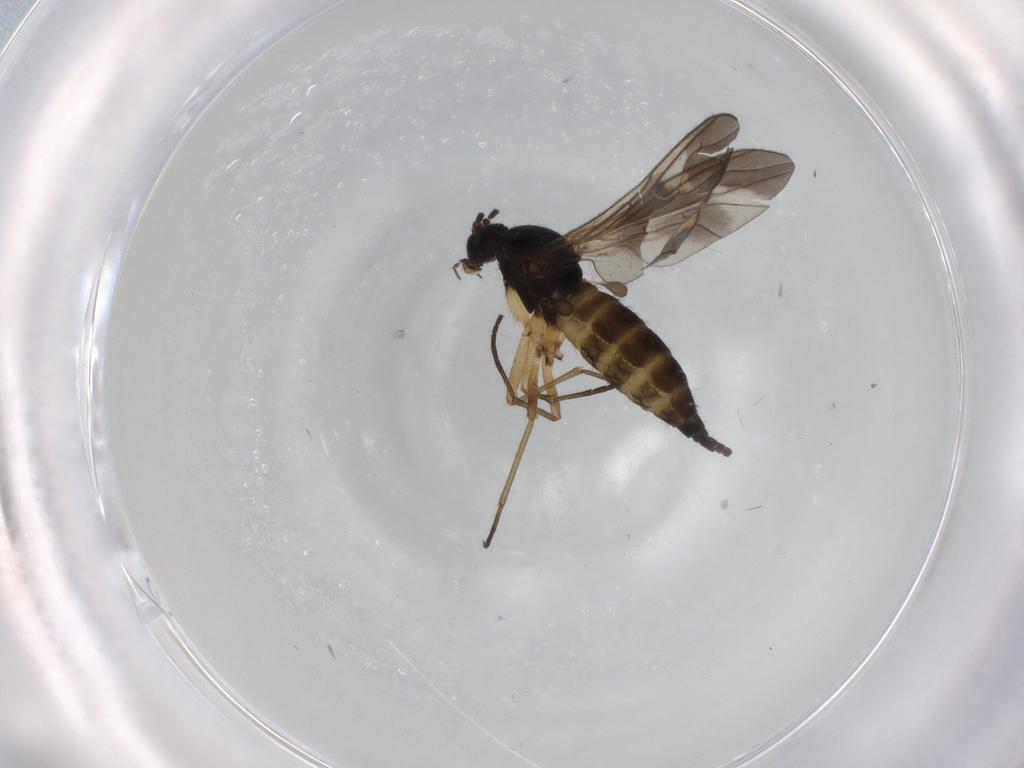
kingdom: Animalia
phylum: Arthropoda
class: Insecta
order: Diptera
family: Sciaridae
